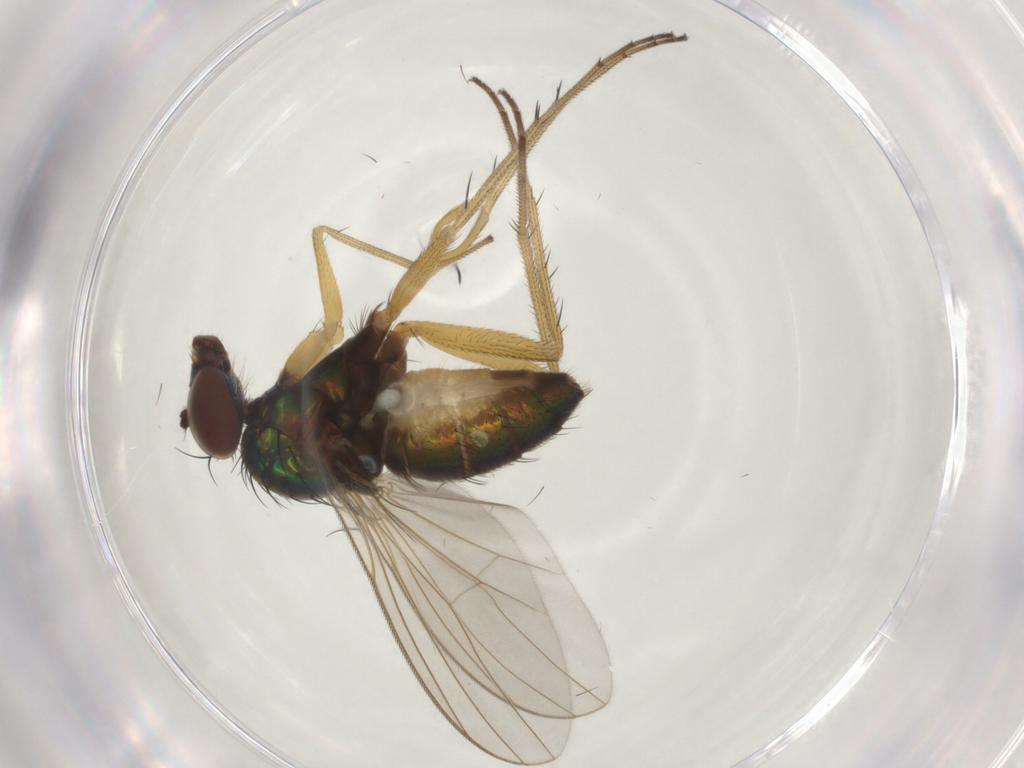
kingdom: Animalia
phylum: Arthropoda
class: Insecta
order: Diptera
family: Dolichopodidae
